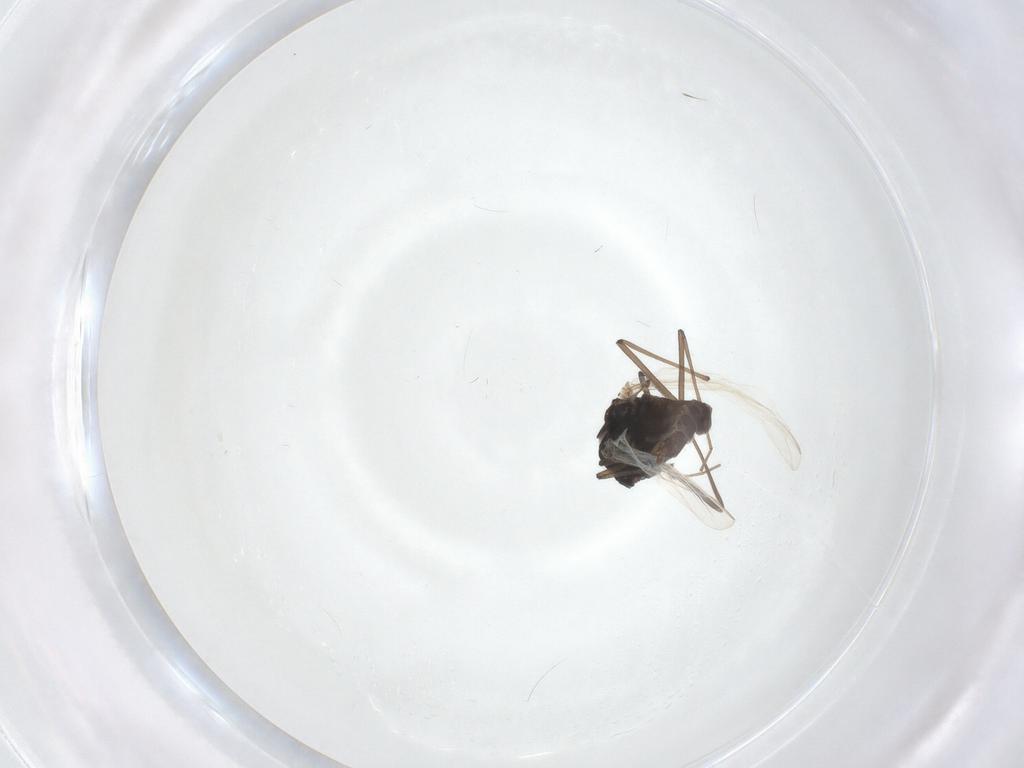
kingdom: Animalia
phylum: Arthropoda
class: Insecta
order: Diptera
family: Chironomidae
